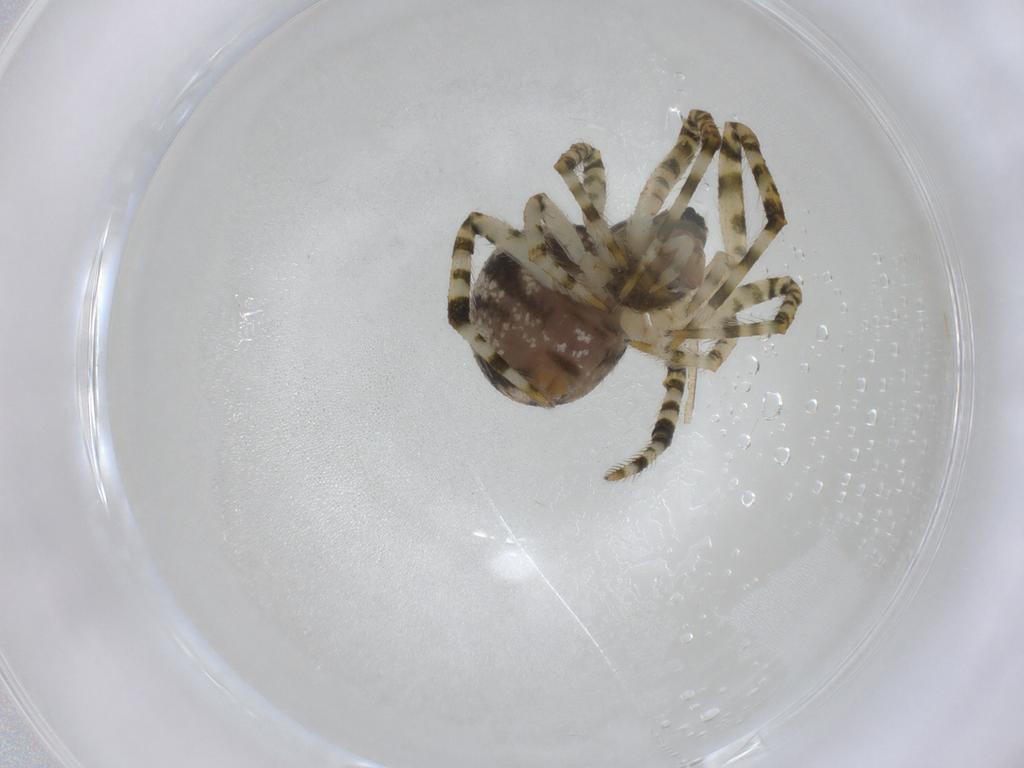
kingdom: Animalia
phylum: Arthropoda
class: Arachnida
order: Araneae
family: Theridiidae
